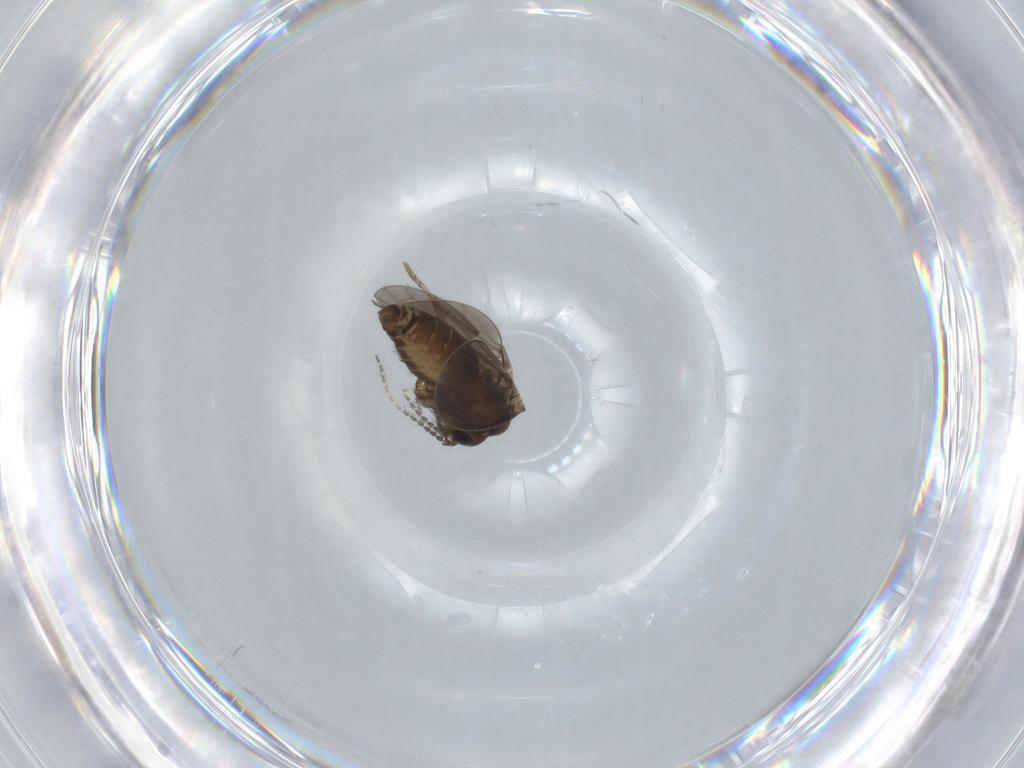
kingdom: Animalia
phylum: Arthropoda
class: Insecta
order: Diptera
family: Psychodidae
